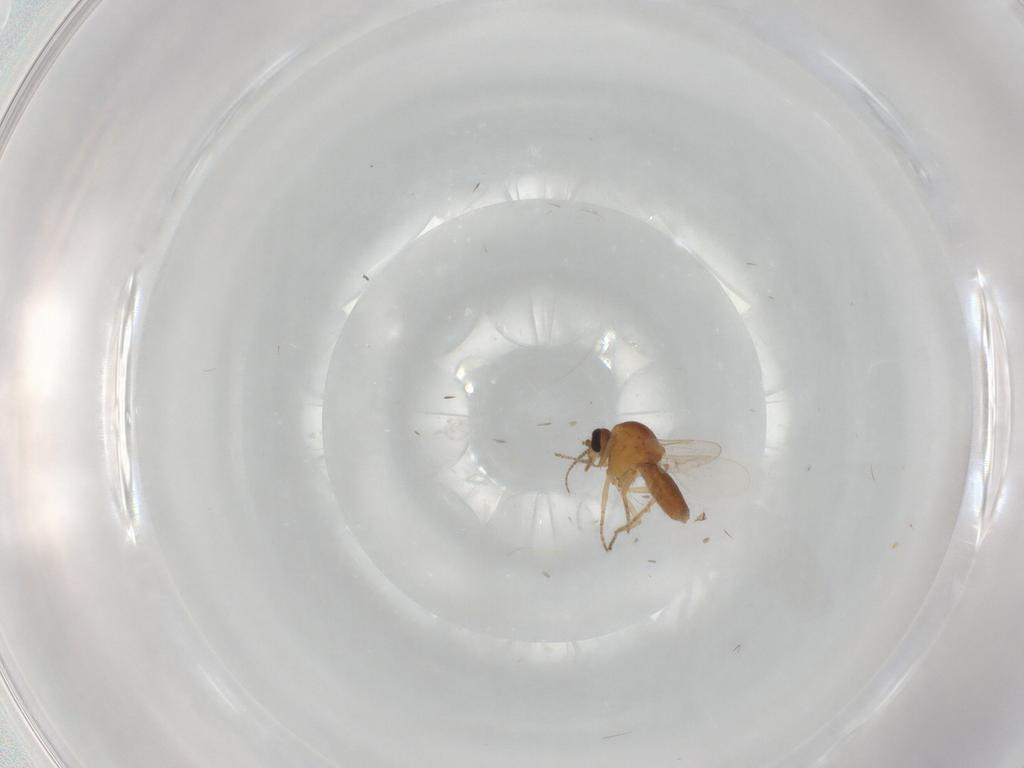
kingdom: Animalia
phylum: Arthropoda
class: Insecta
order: Diptera
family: Ceratopogonidae
